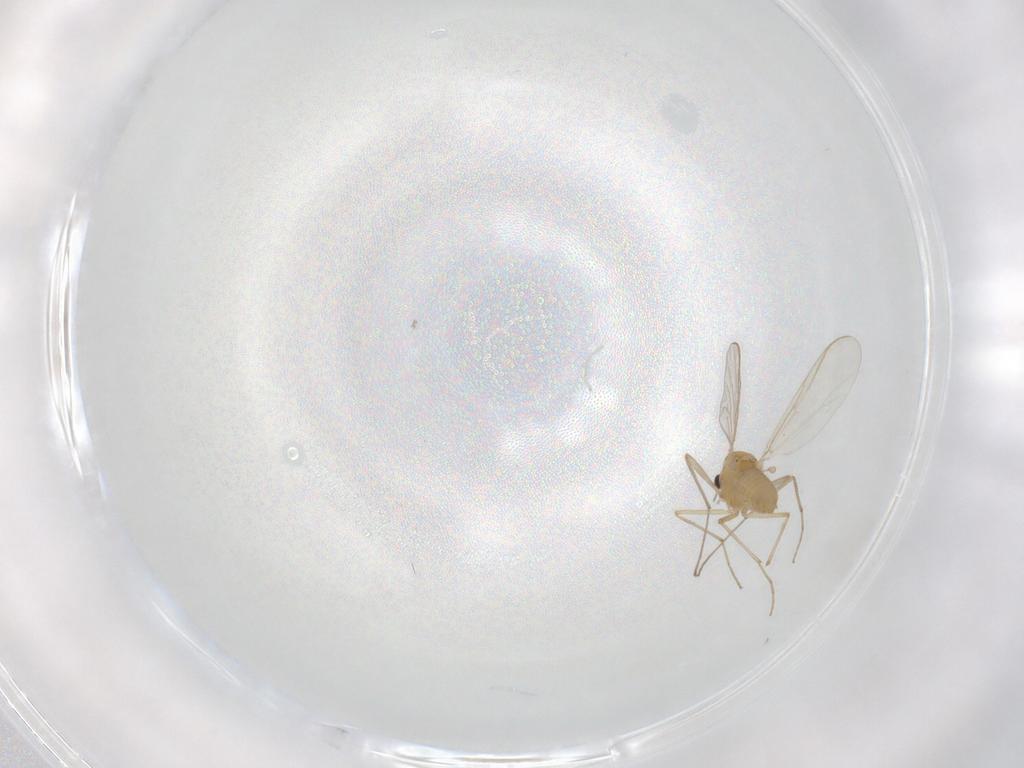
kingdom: Animalia
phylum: Arthropoda
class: Insecta
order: Diptera
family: Chironomidae
